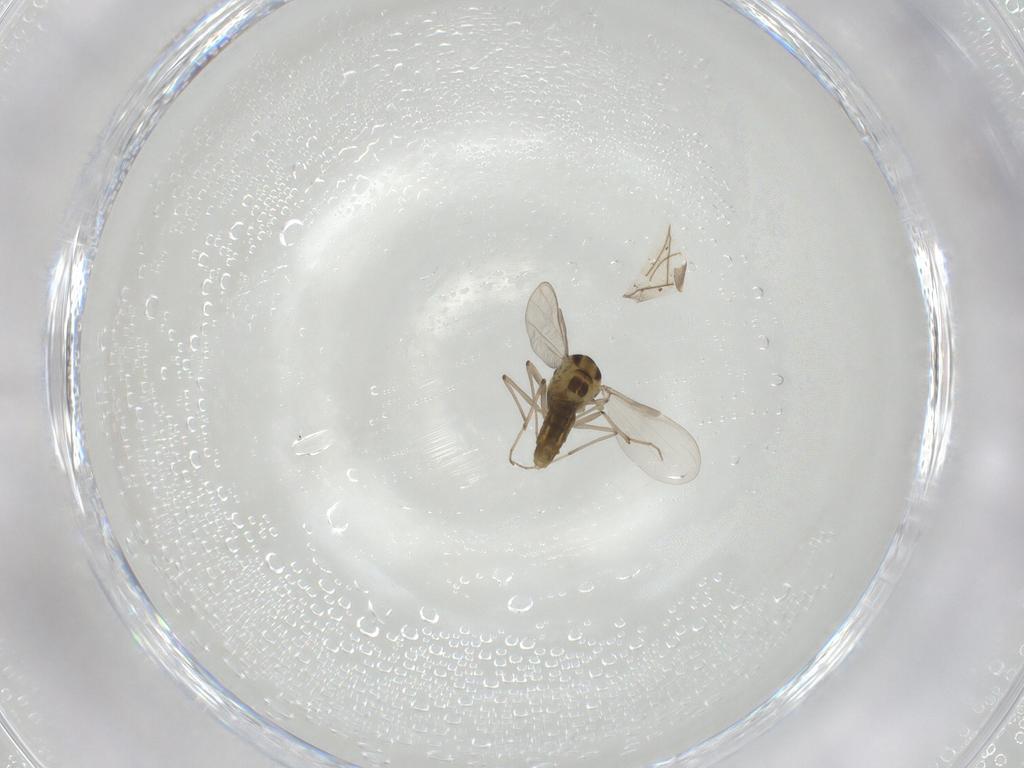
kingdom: Animalia
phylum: Arthropoda
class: Insecta
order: Diptera
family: Chironomidae
